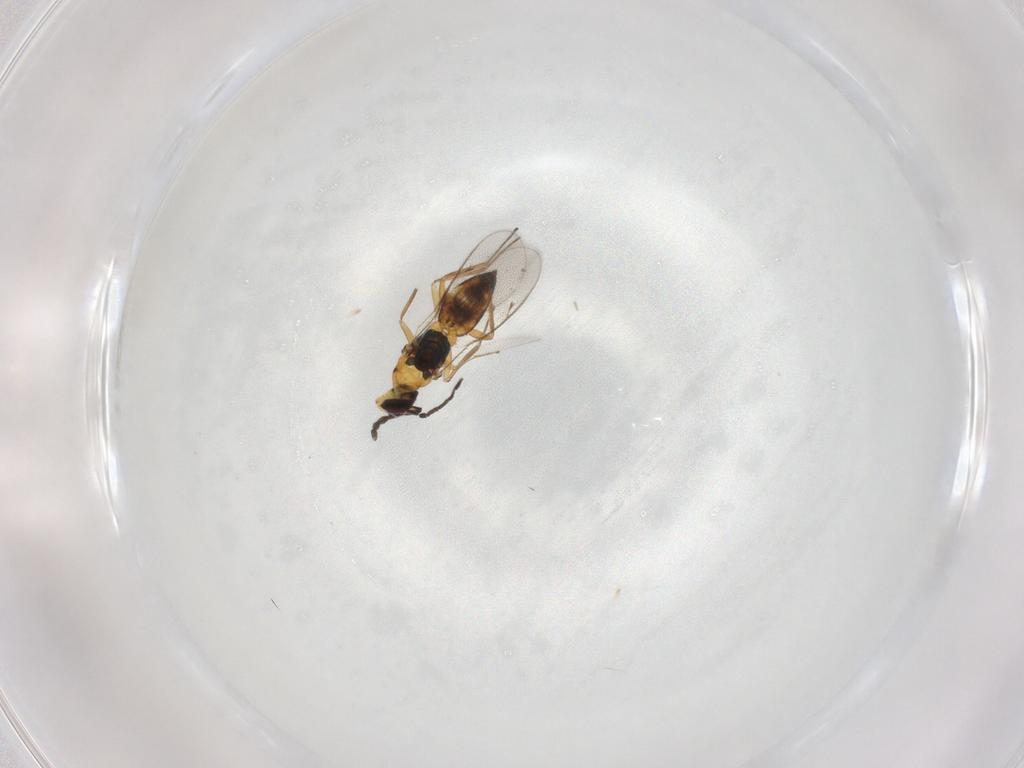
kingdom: Animalia
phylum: Arthropoda
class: Insecta
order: Hymenoptera
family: Eulophidae
